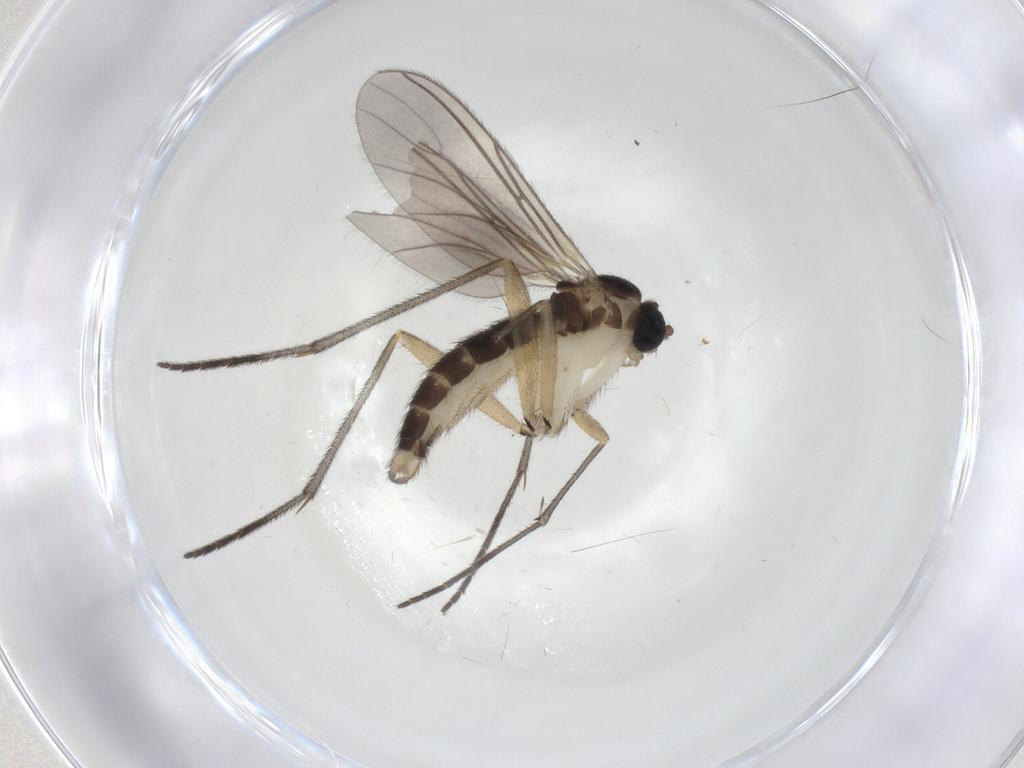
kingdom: Animalia
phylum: Arthropoda
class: Insecta
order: Diptera
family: Sciaridae
